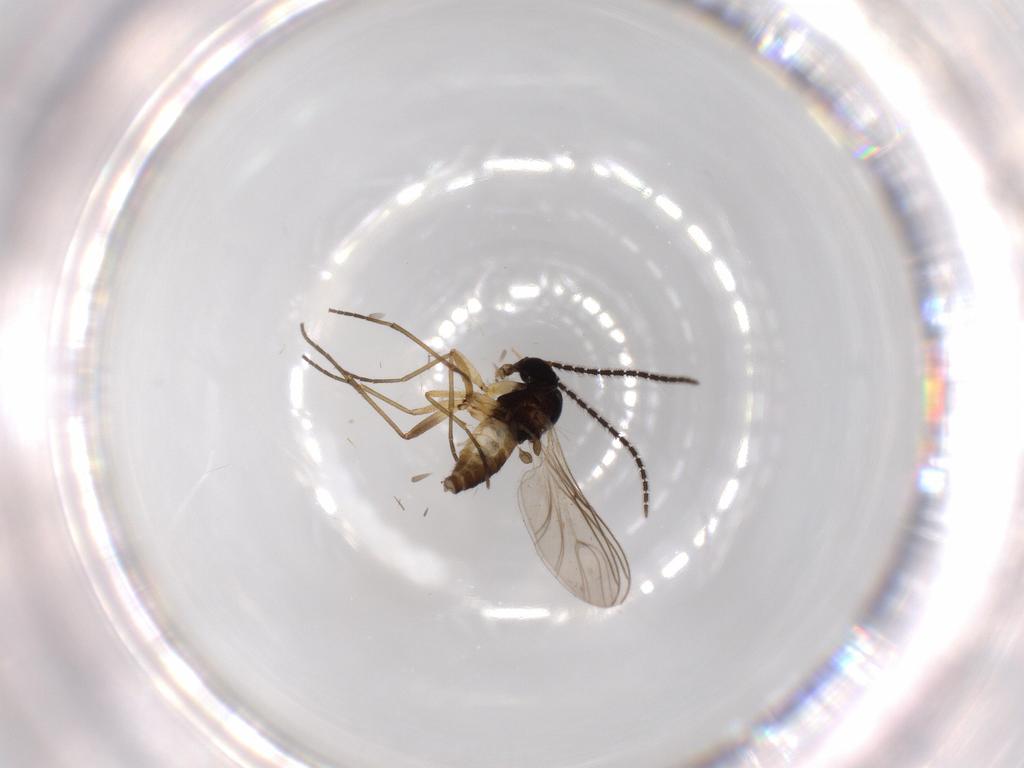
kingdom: Animalia
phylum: Arthropoda
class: Insecta
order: Diptera
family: Sciaridae
